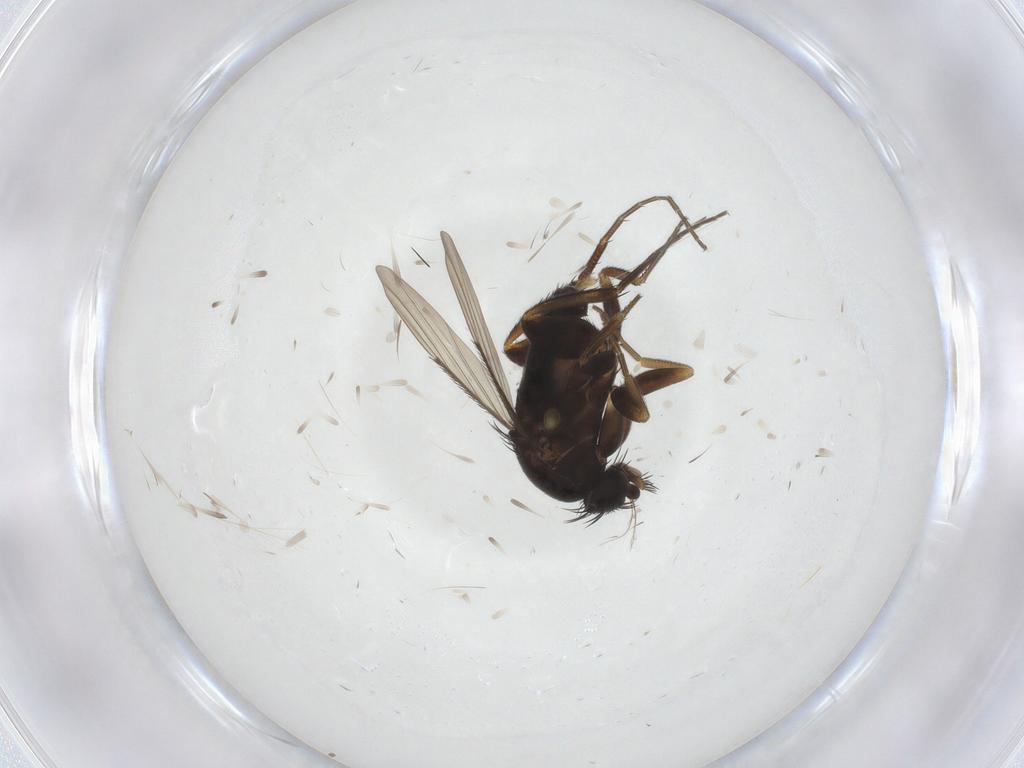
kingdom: Animalia
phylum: Arthropoda
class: Insecta
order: Diptera
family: Phoridae
